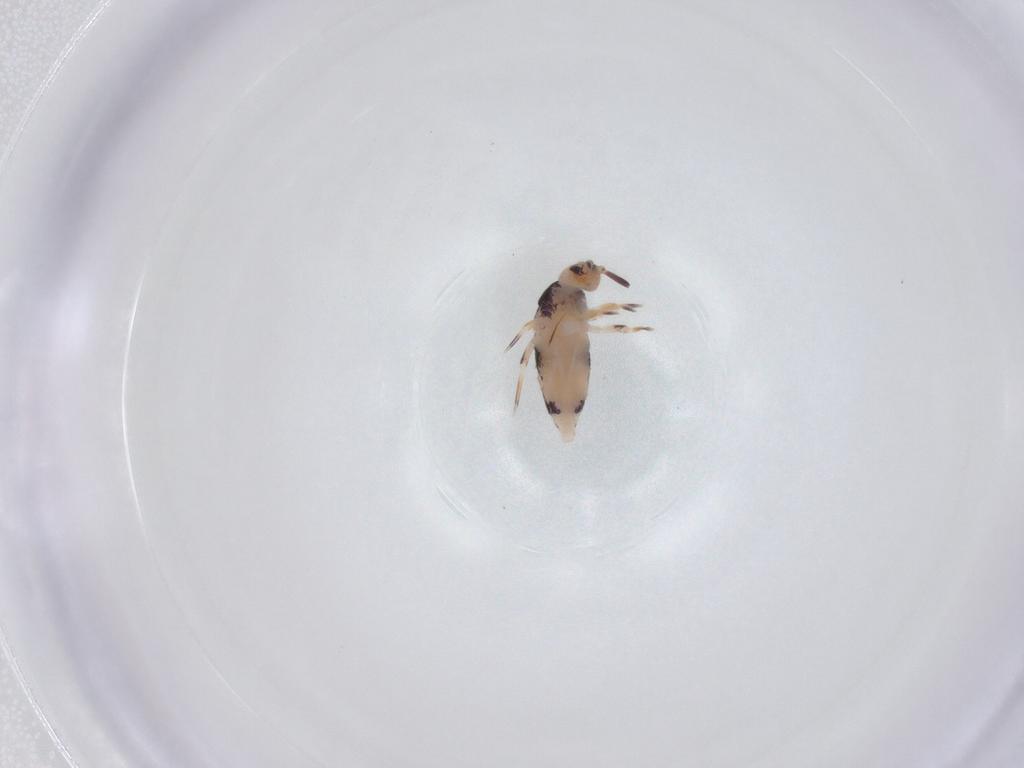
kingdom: Animalia
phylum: Arthropoda
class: Collembola
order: Entomobryomorpha
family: Entomobryidae
